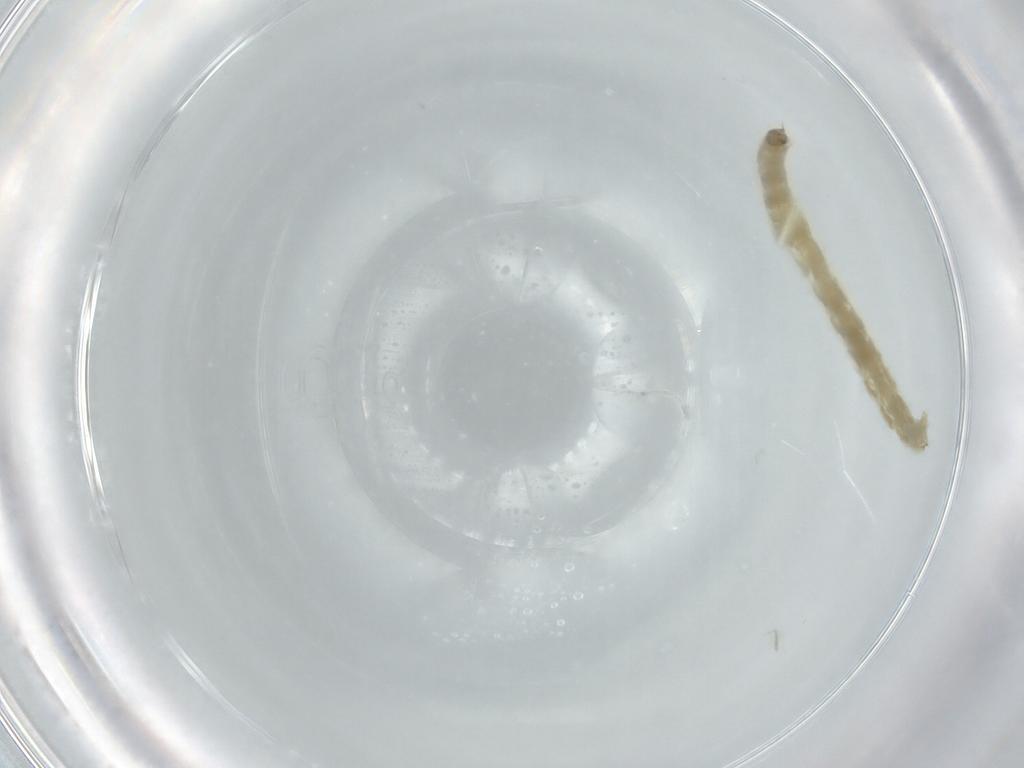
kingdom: Animalia
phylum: Arthropoda
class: Insecta
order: Diptera
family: Chironomidae
